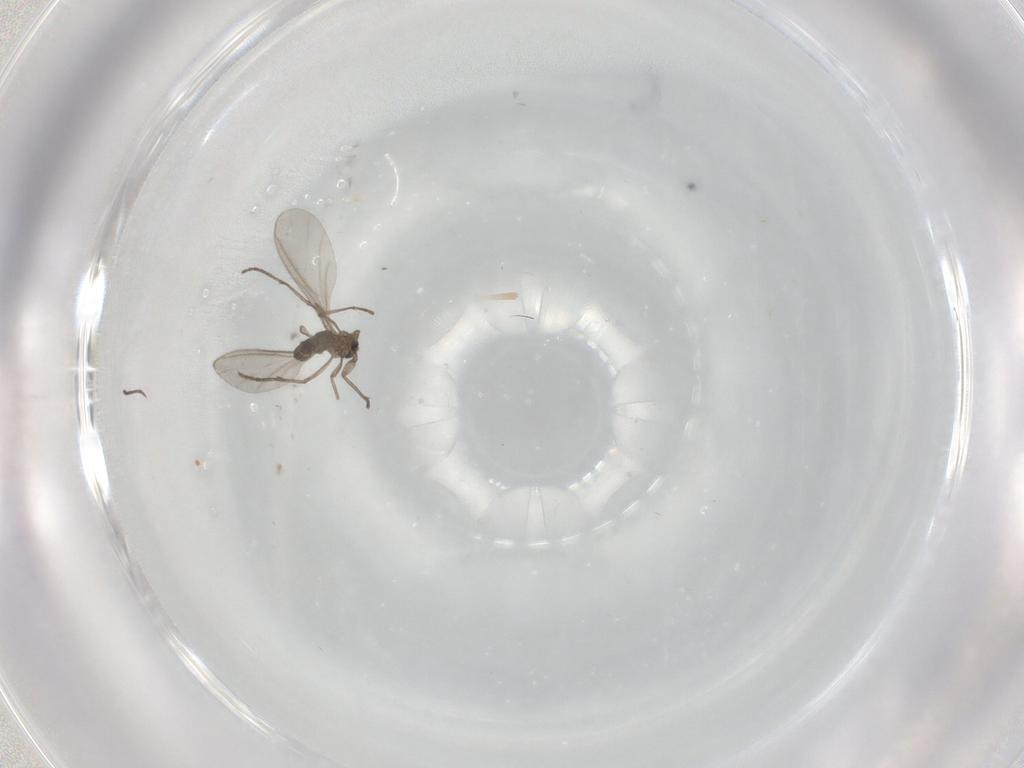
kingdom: Animalia
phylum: Arthropoda
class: Insecta
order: Diptera
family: Sciaridae
